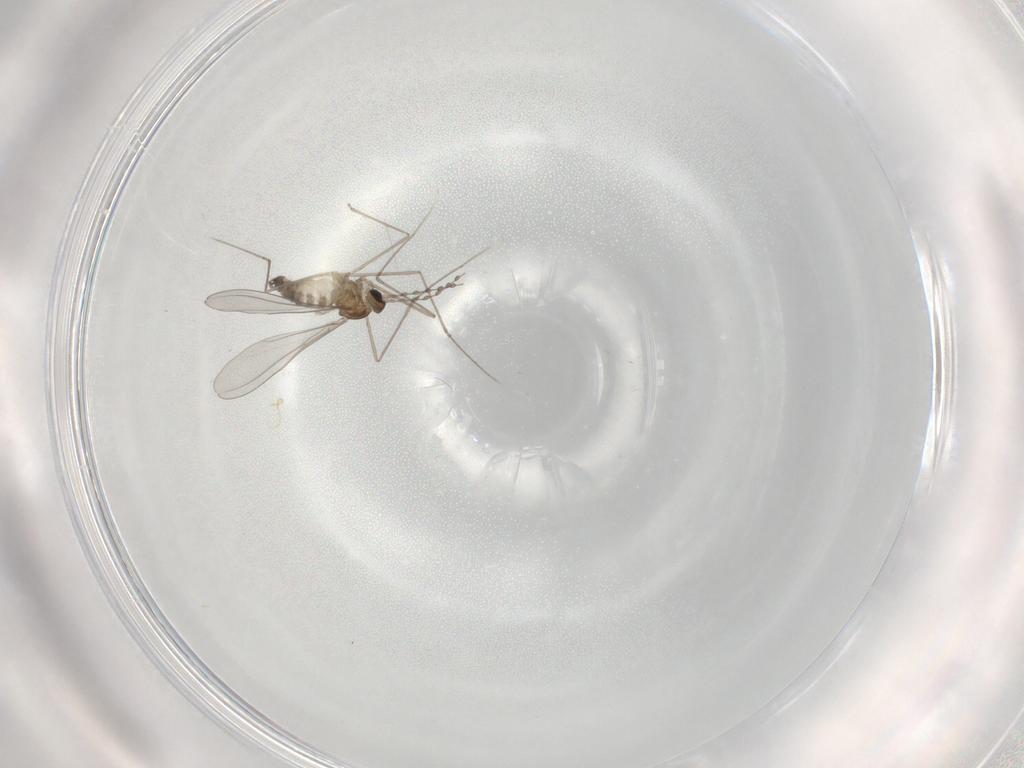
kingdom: Animalia
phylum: Arthropoda
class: Insecta
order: Diptera
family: Cecidomyiidae
